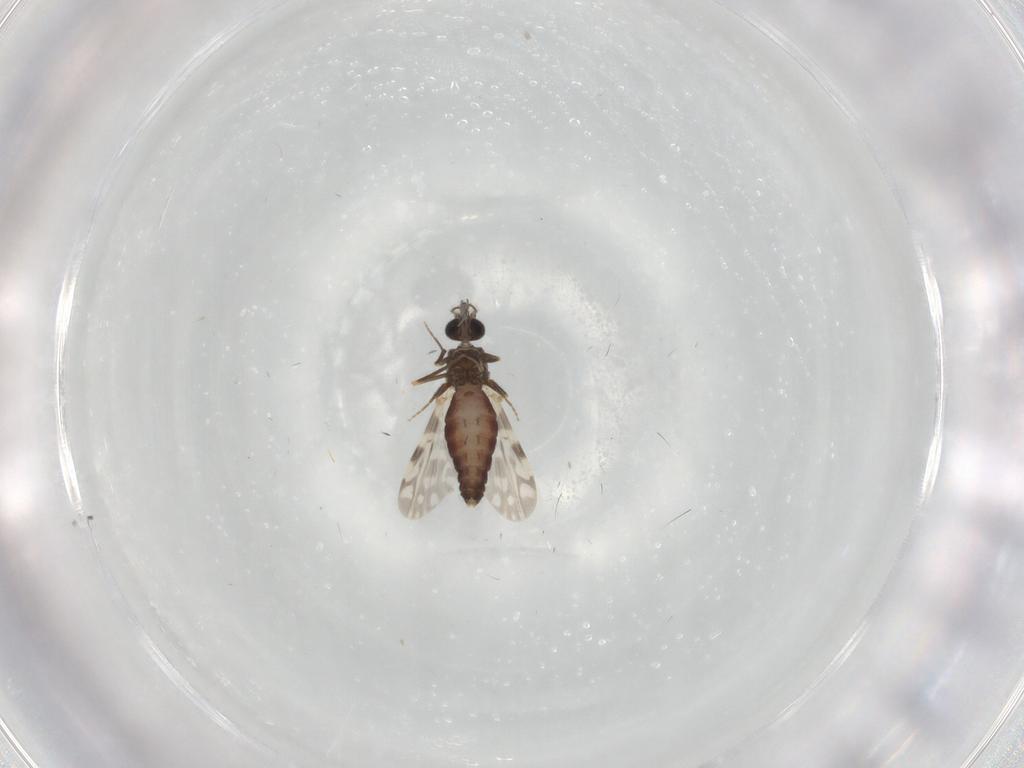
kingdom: Animalia
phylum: Arthropoda
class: Insecta
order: Diptera
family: Ceratopogonidae
